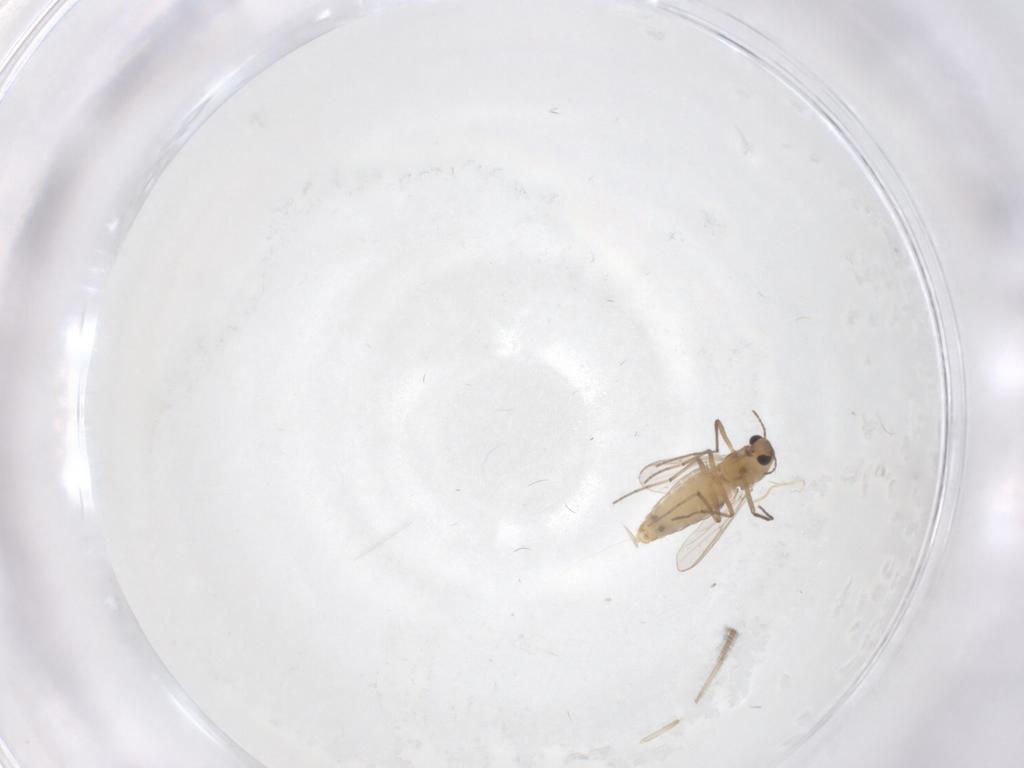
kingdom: Animalia
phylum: Arthropoda
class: Insecta
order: Diptera
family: Chironomidae
